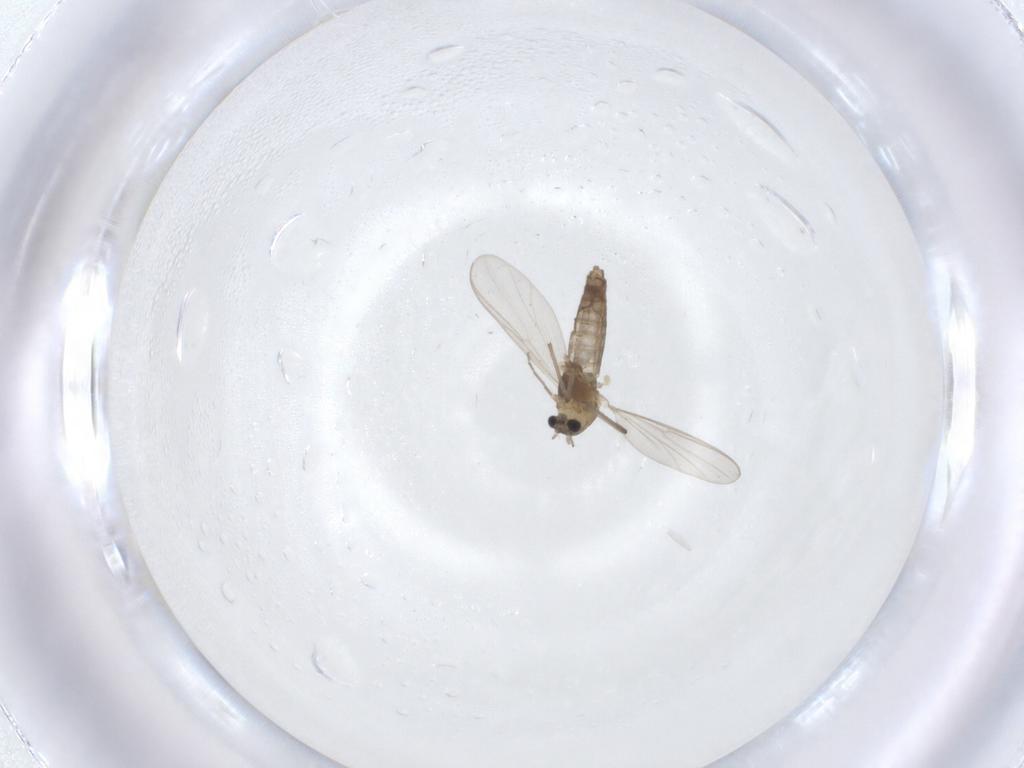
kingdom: Animalia
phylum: Arthropoda
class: Insecta
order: Diptera
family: Chironomidae
